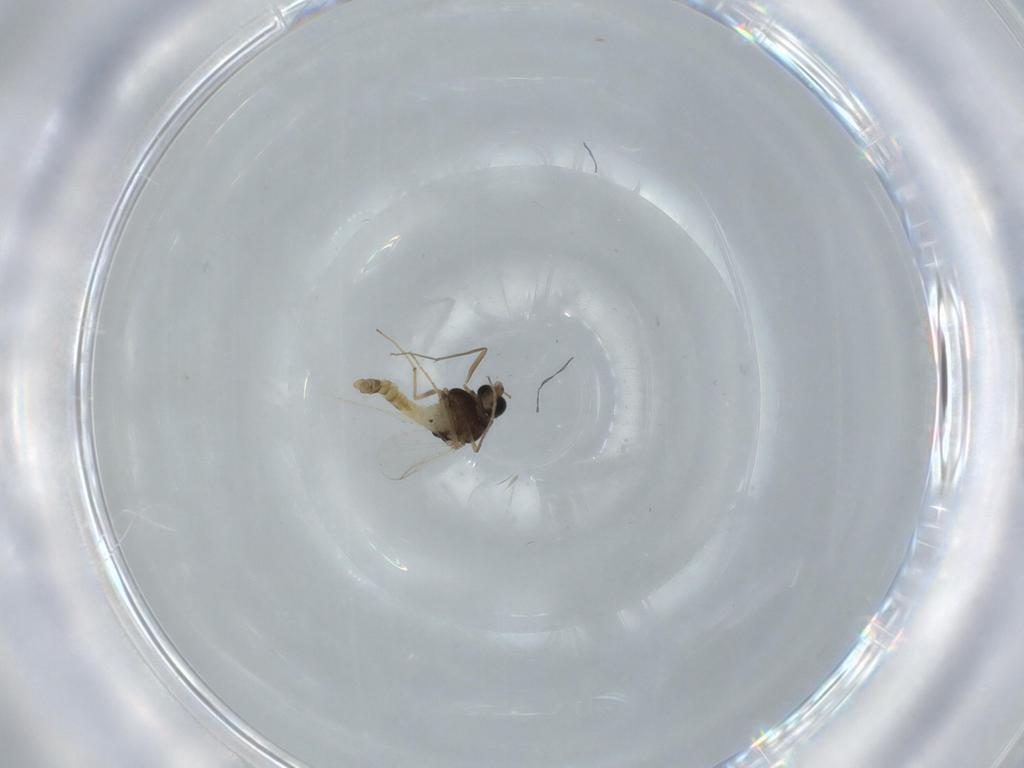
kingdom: Animalia
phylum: Arthropoda
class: Insecta
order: Diptera
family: Chironomidae
